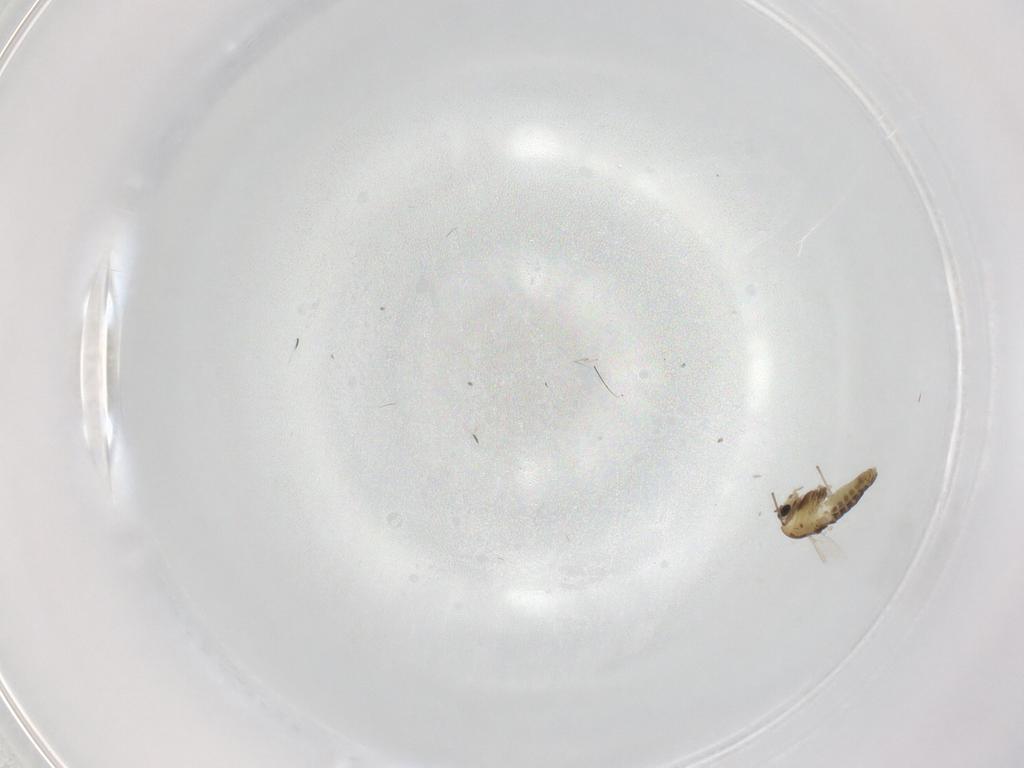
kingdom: Animalia
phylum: Arthropoda
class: Insecta
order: Diptera
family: Chironomidae
